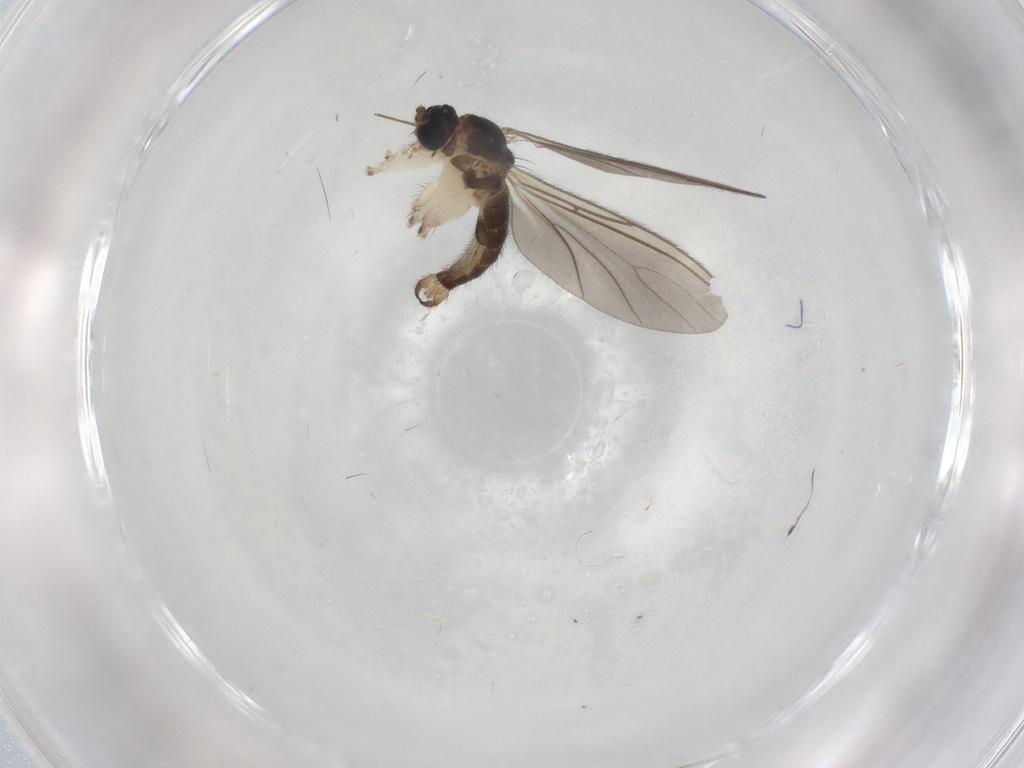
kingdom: Animalia
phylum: Arthropoda
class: Insecta
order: Diptera
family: Sciaridae
